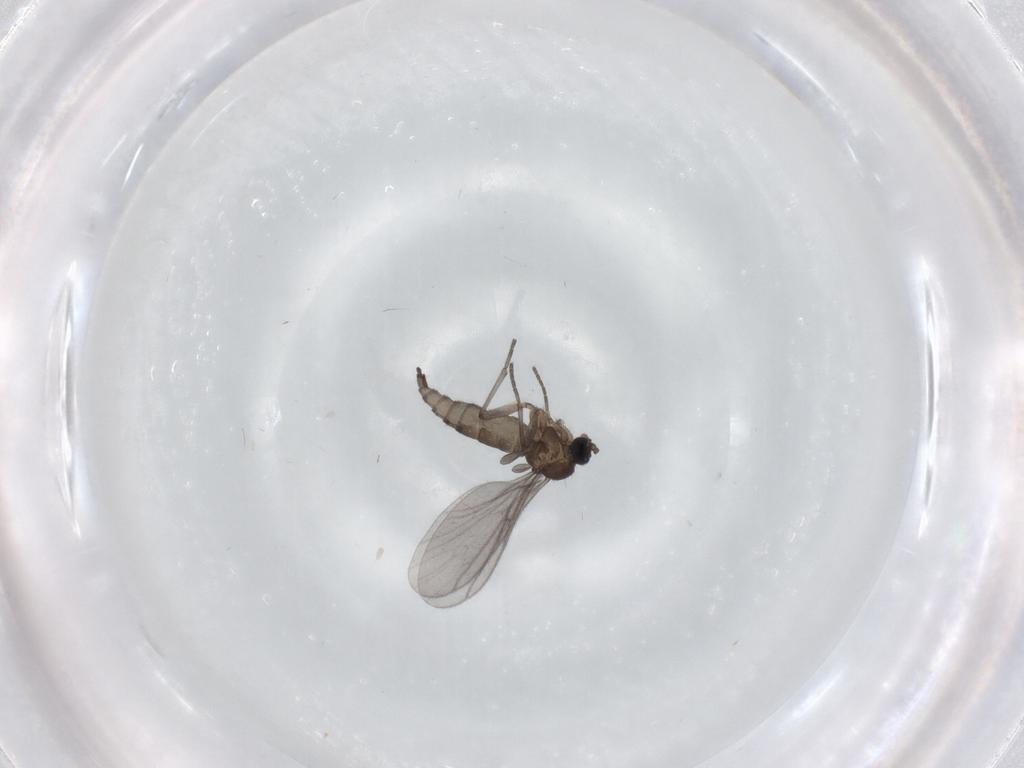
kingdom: Animalia
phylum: Arthropoda
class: Insecta
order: Diptera
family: Sciaridae
